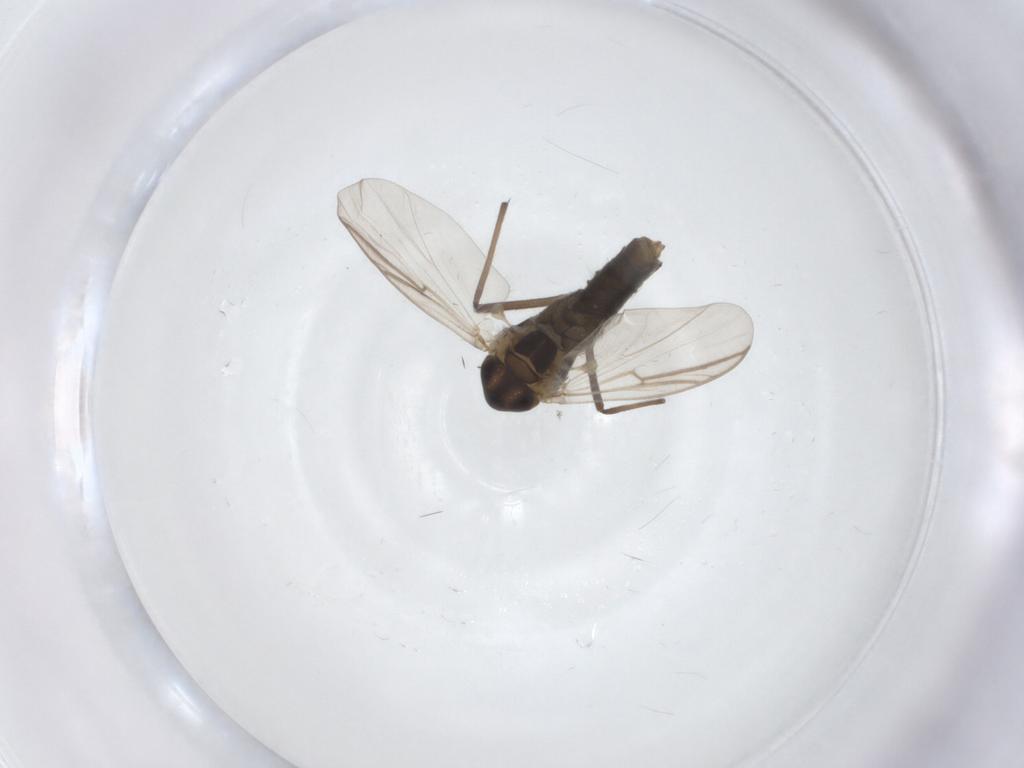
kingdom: Animalia
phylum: Arthropoda
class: Insecta
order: Diptera
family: Chironomidae
